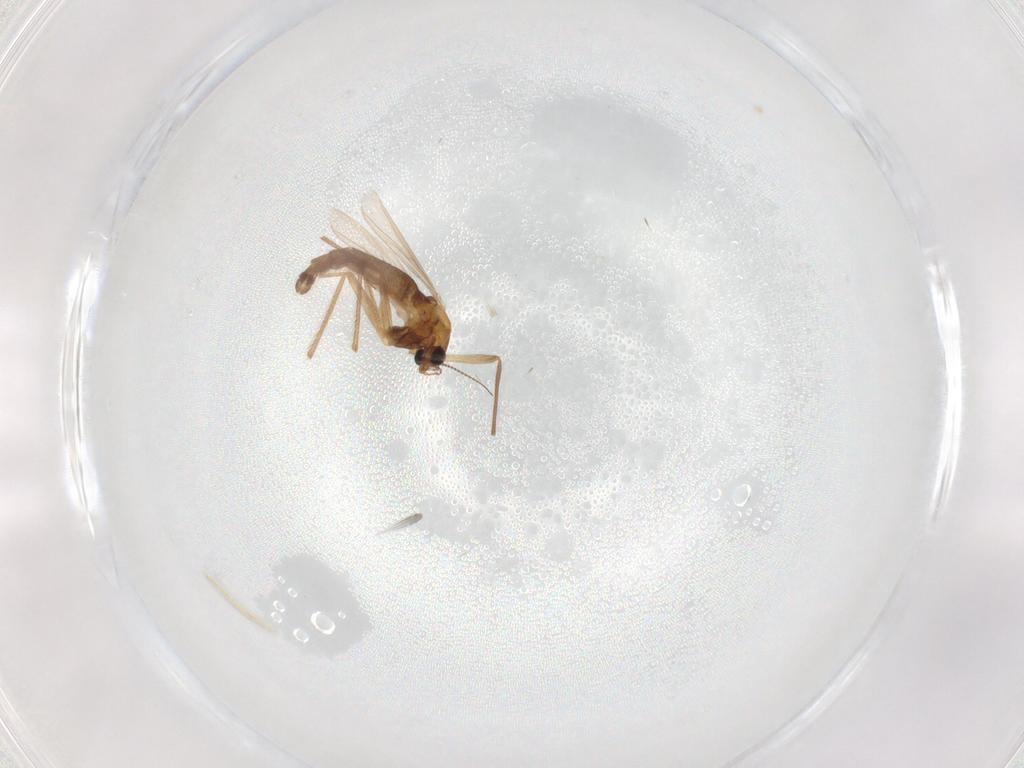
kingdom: Animalia
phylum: Arthropoda
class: Insecta
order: Diptera
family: Chironomidae
